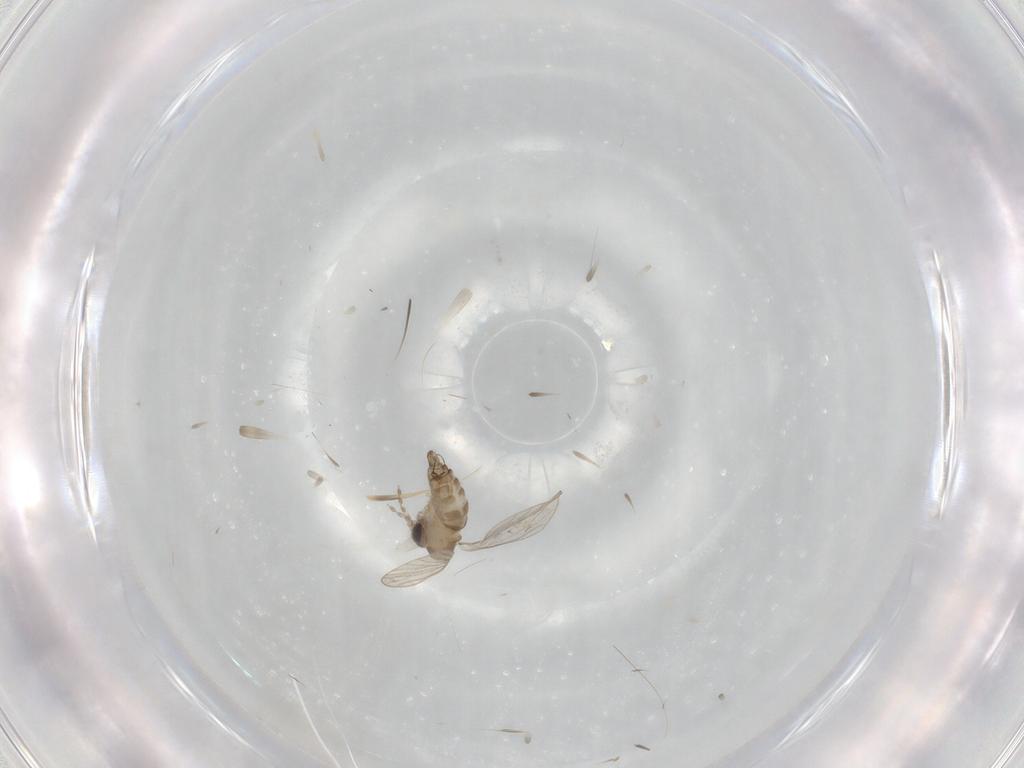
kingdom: Animalia
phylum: Arthropoda
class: Insecta
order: Diptera
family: Sciaridae
